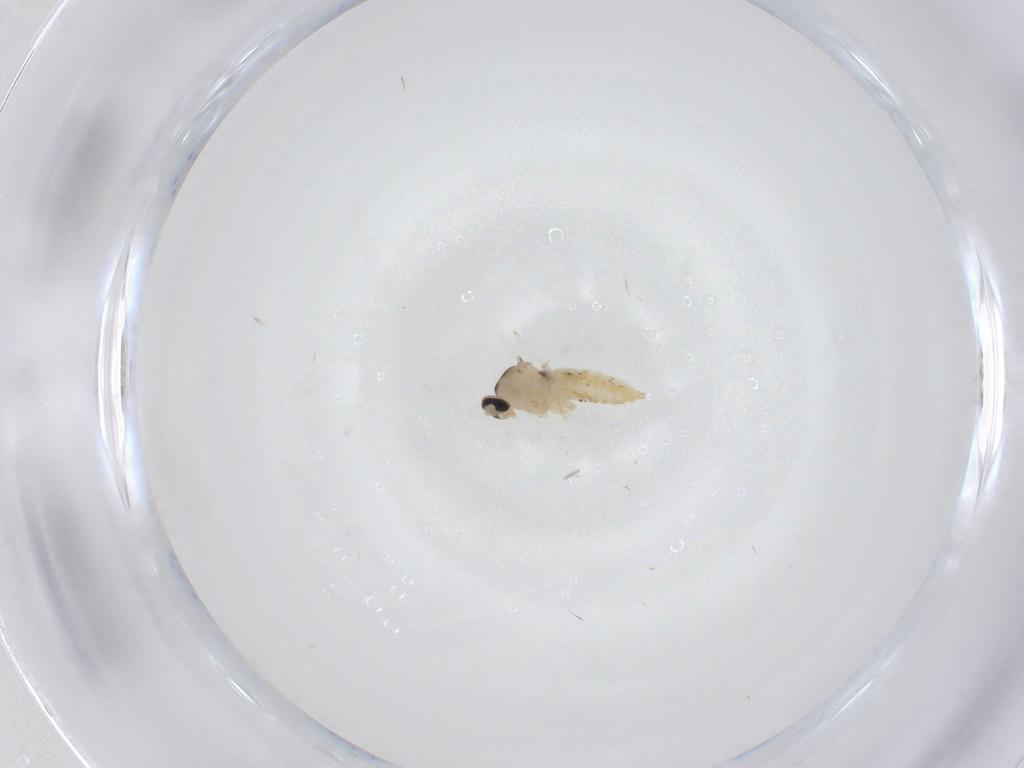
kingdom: Animalia
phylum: Arthropoda
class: Insecta
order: Diptera
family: Cecidomyiidae
